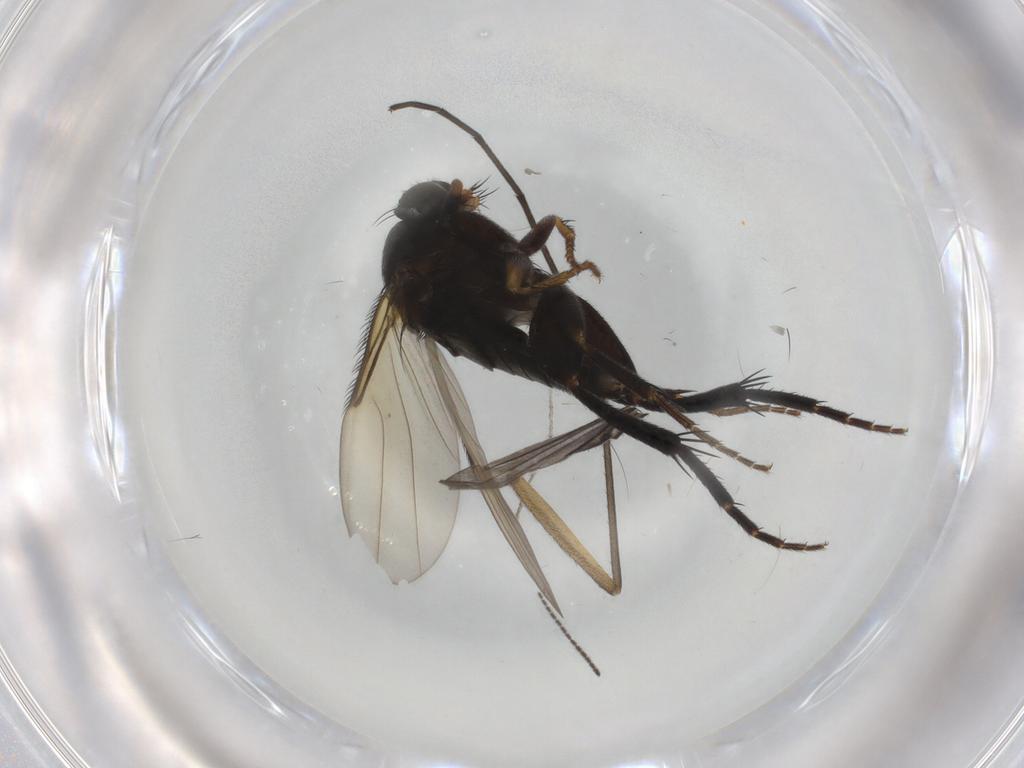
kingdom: Animalia
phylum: Arthropoda
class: Insecta
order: Diptera
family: Phoridae
